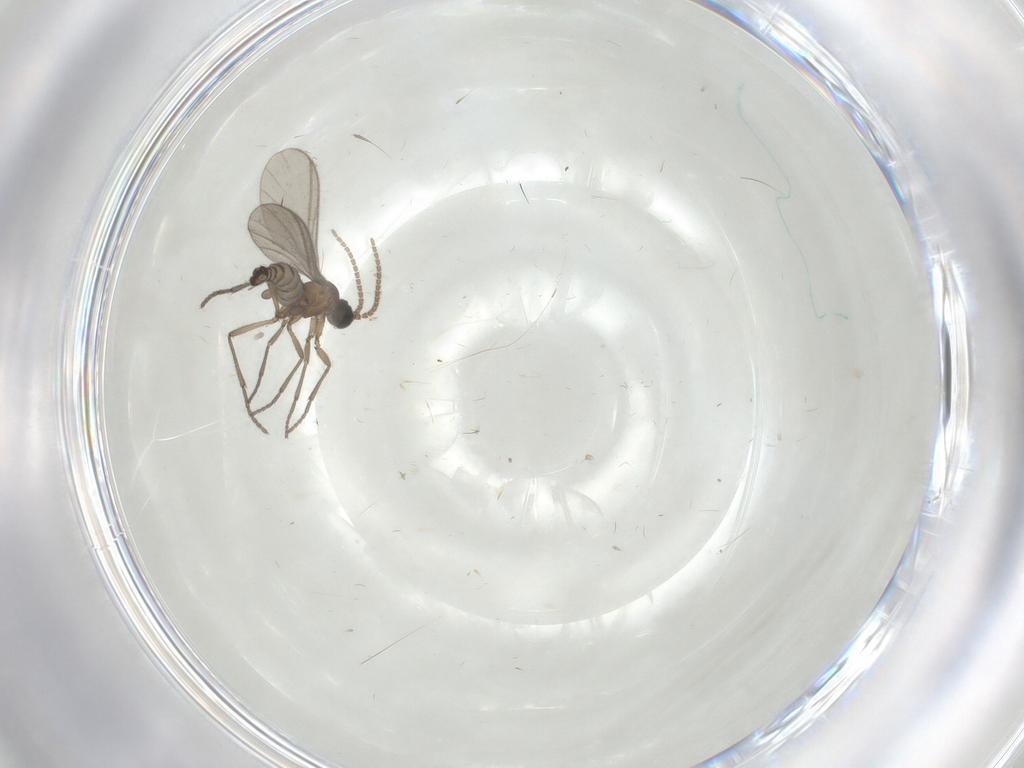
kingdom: Animalia
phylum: Arthropoda
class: Insecta
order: Diptera
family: Sciaridae
